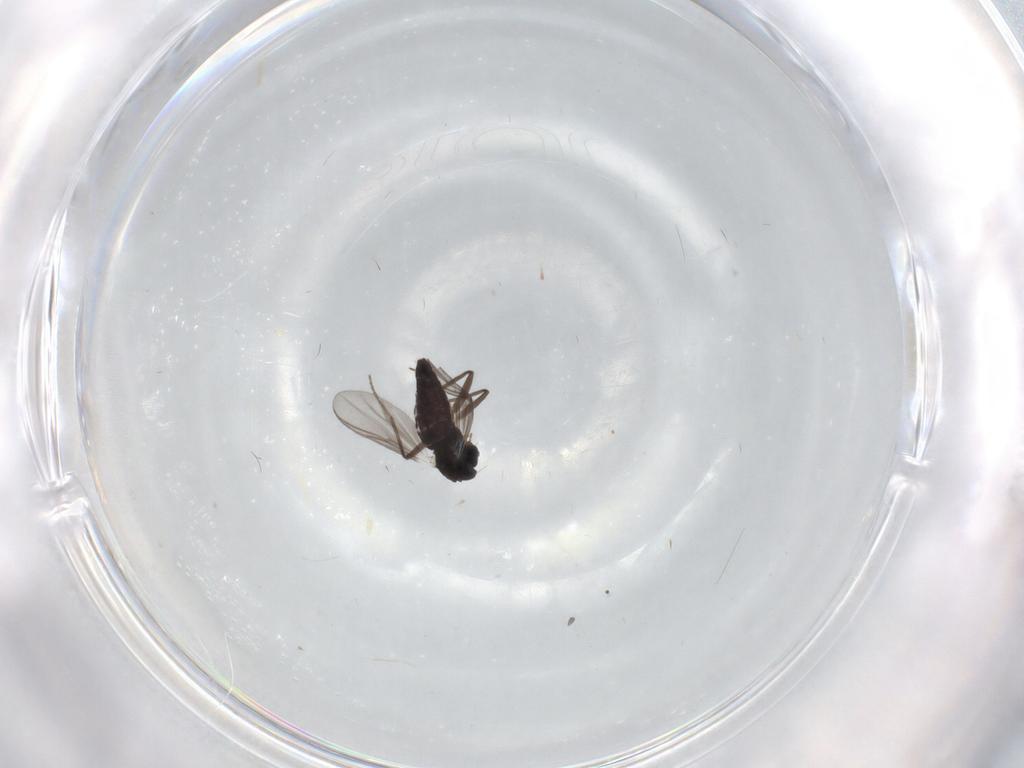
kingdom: Animalia
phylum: Arthropoda
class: Insecta
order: Diptera
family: Chironomidae
